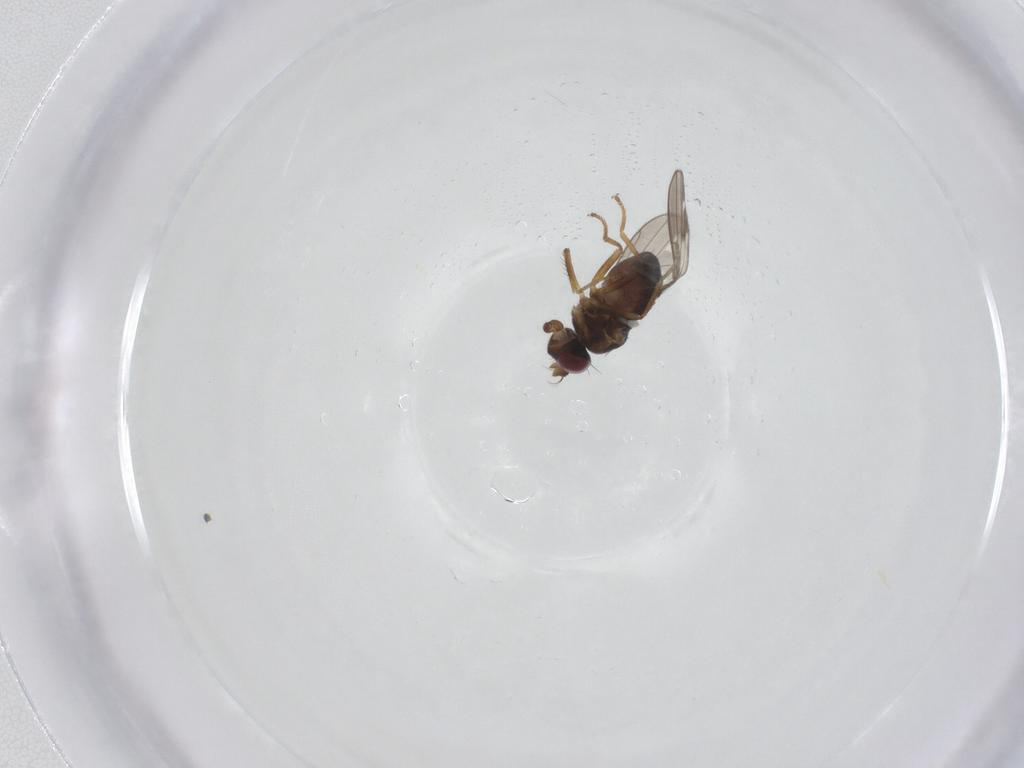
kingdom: Animalia
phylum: Arthropoda
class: Insecta
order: Diptera
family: Ephydridae
